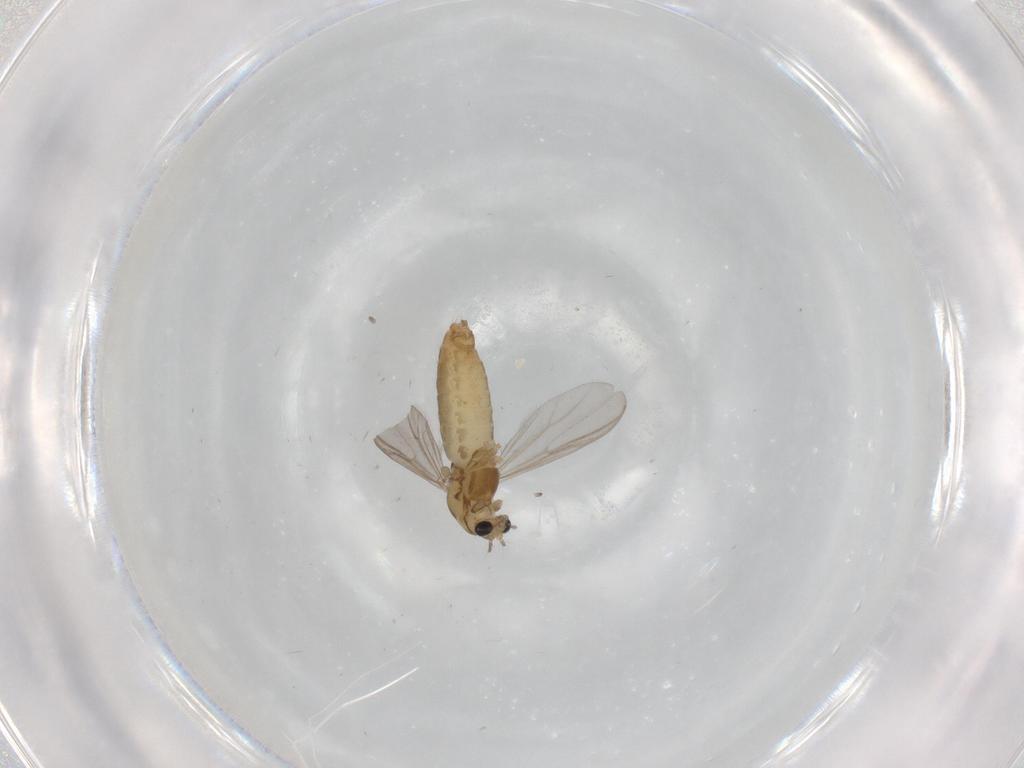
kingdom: Animalia
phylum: Arthropoda
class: Insecta
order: Diptera
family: Chironomidae
